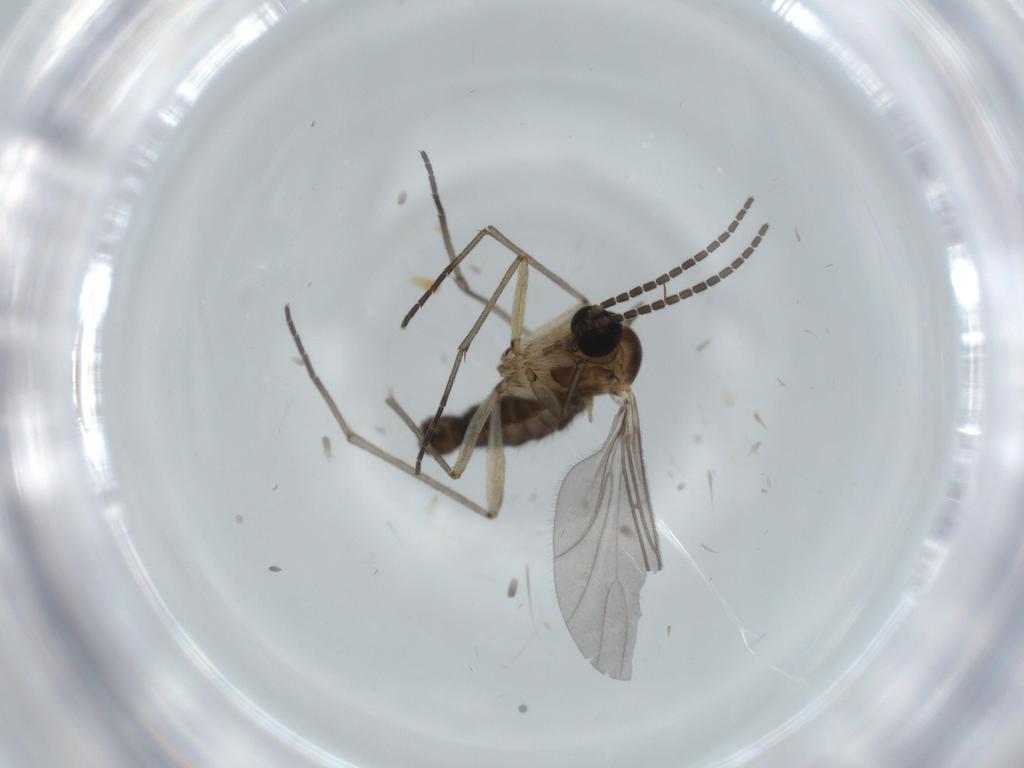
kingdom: Animalia
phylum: Arthropoda
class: Insecta
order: Diptera
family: Sciaridae
